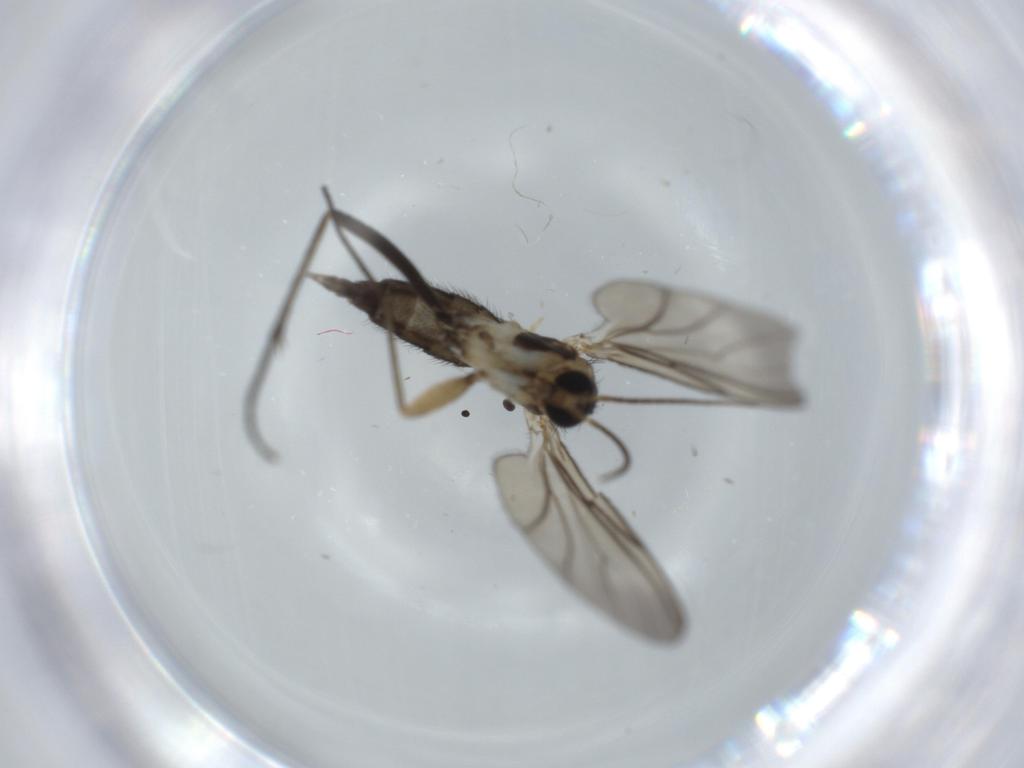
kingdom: Animalia
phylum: Arthropoda
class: Insecta
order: Diptera
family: Sciaridae
